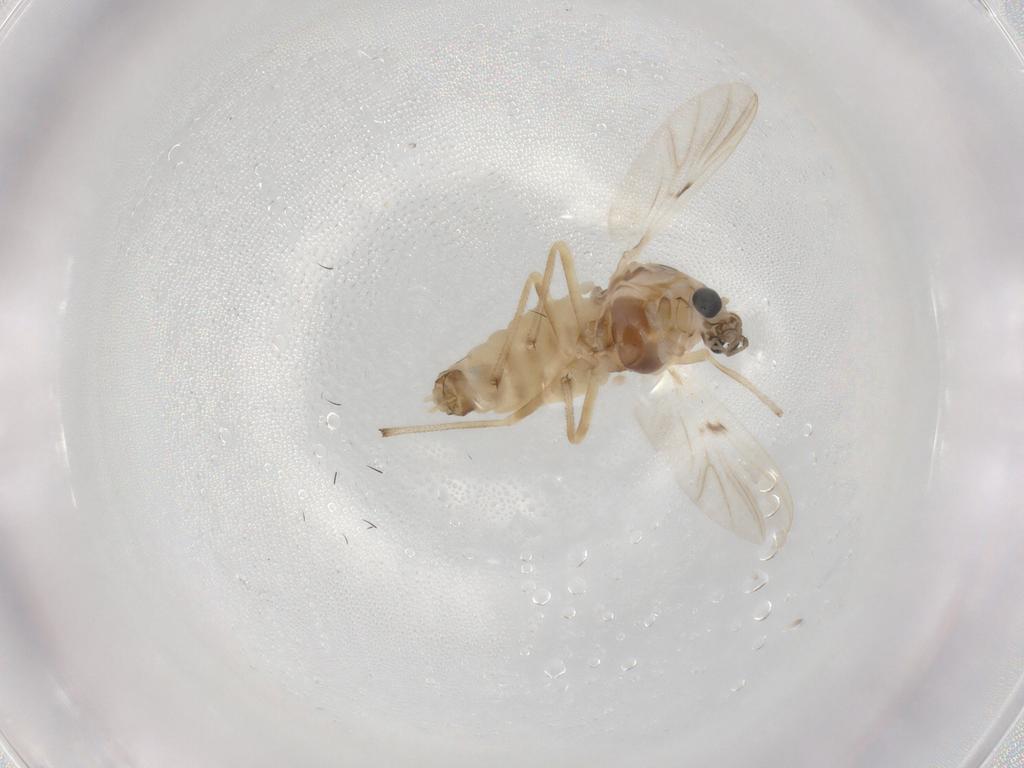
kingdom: Animalia
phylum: Arthropoda
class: Insecta
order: Diptera
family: Chironomidae
